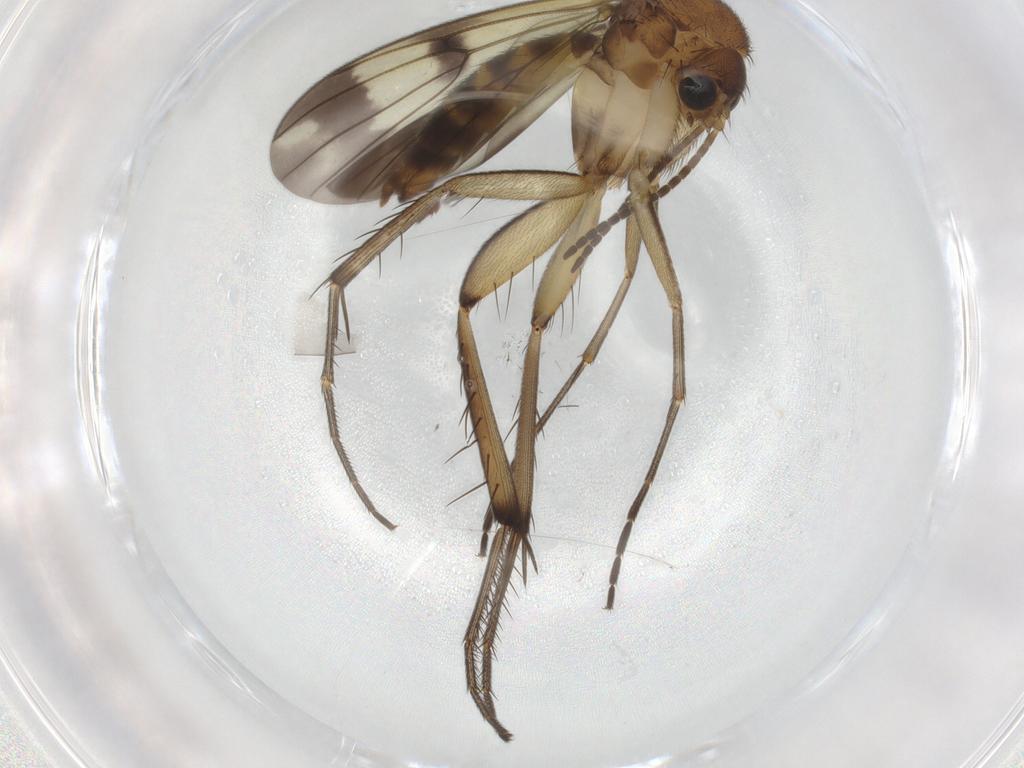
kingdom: Animalia
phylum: Arthropoda
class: Insecta
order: Diptera
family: Mycetophilidae
